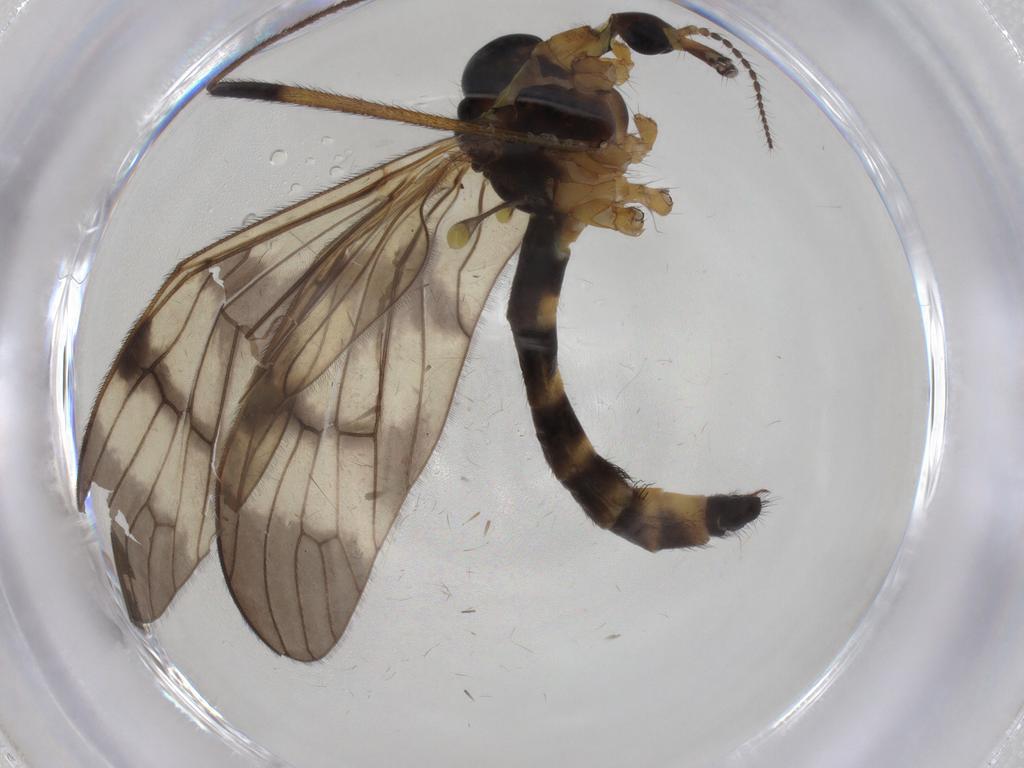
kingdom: Animalia
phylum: Arthropoda
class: Insecta
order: Diptera
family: Limoniidae
